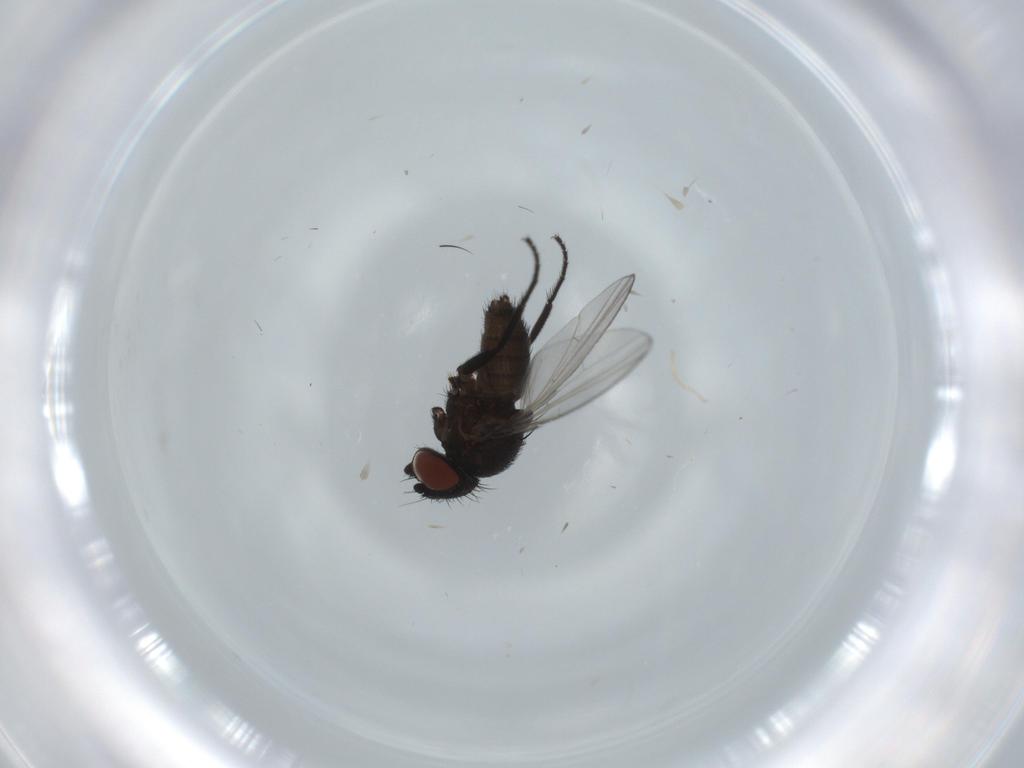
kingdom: Animalia
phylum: Arthropoda
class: Insecta
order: Diptera
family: Milichiidae
